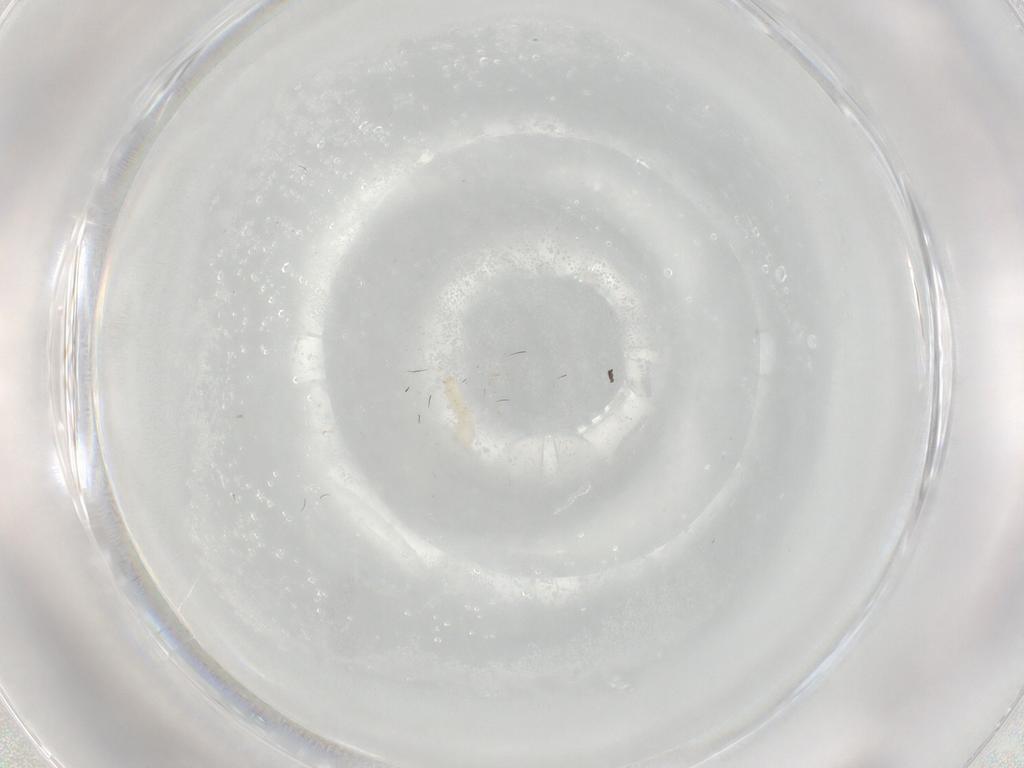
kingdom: Animalia
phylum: Arthropoda
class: Insecta
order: Diptera
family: Cecidomyiidae
